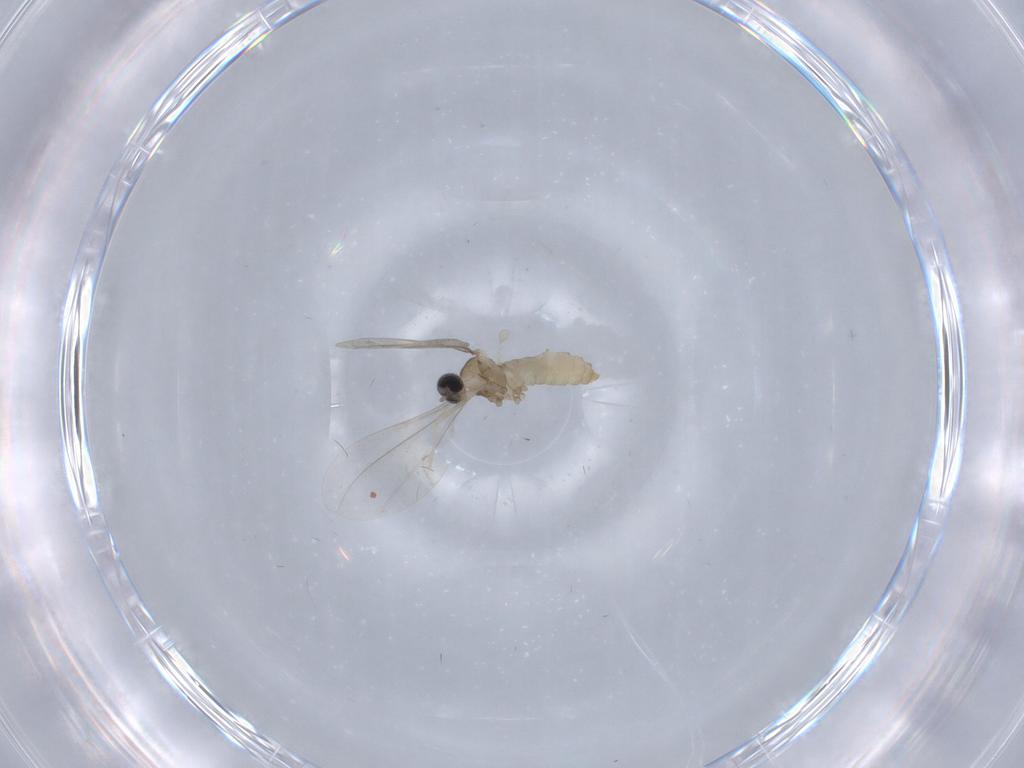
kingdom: Animalia
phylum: Arthropoda
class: Insecta
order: Diptera
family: Cecidomyiidae
